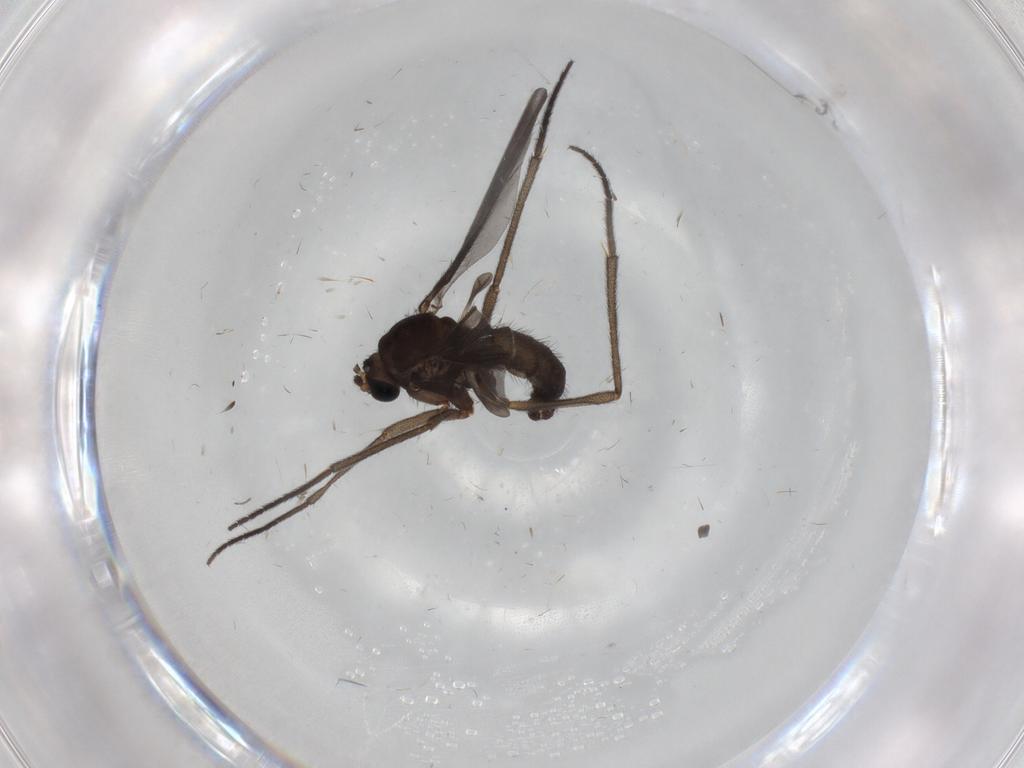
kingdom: Animalia
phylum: Arthropoda
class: Insecta
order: Diptera
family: Sciaridae
